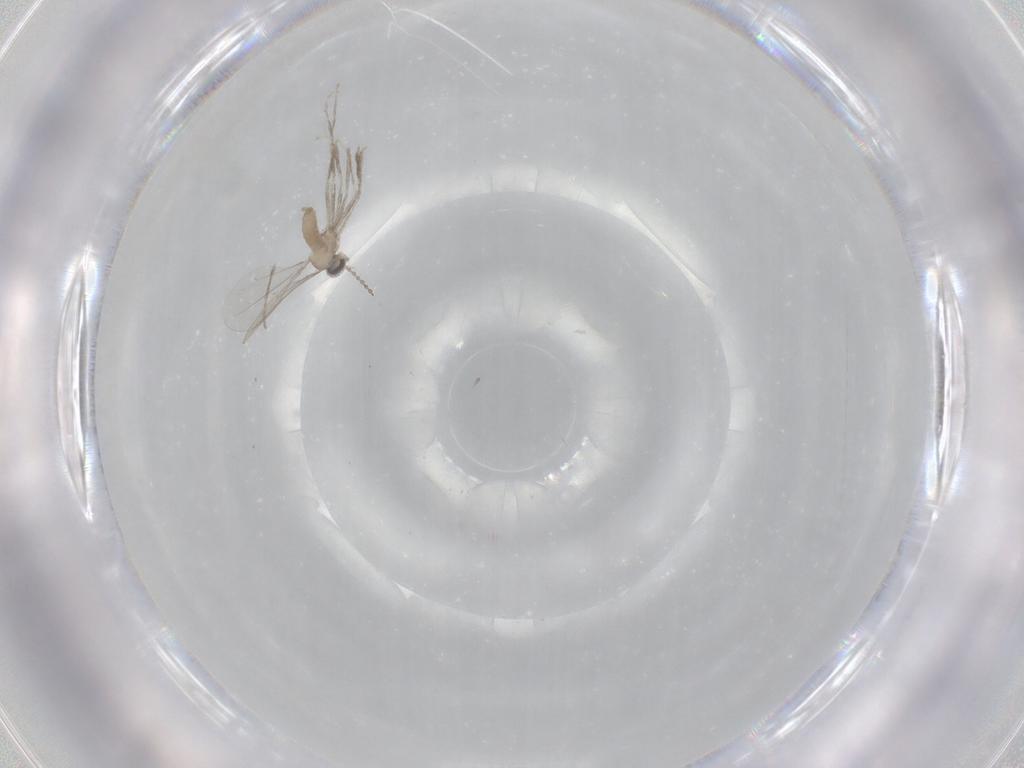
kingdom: Animalia
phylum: Arthropoda
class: Insecta
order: Diptera
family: Cecidomyiidae
